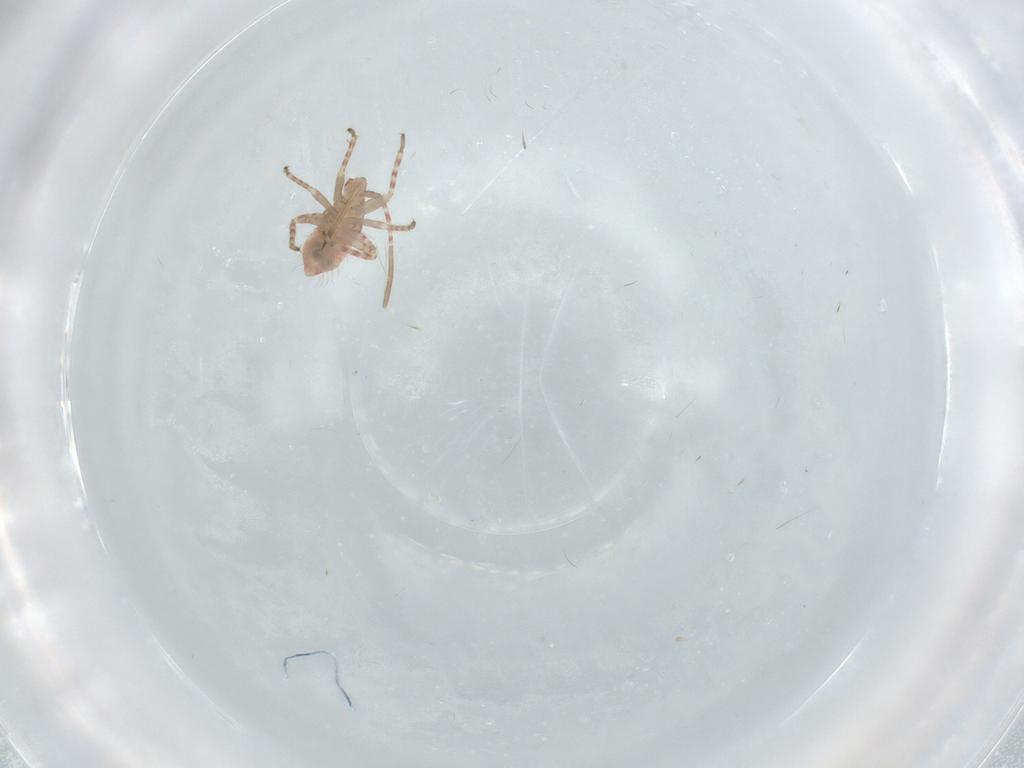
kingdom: Animalia
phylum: Arthropoda
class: Insecta
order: Hemiptera
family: Miridae
